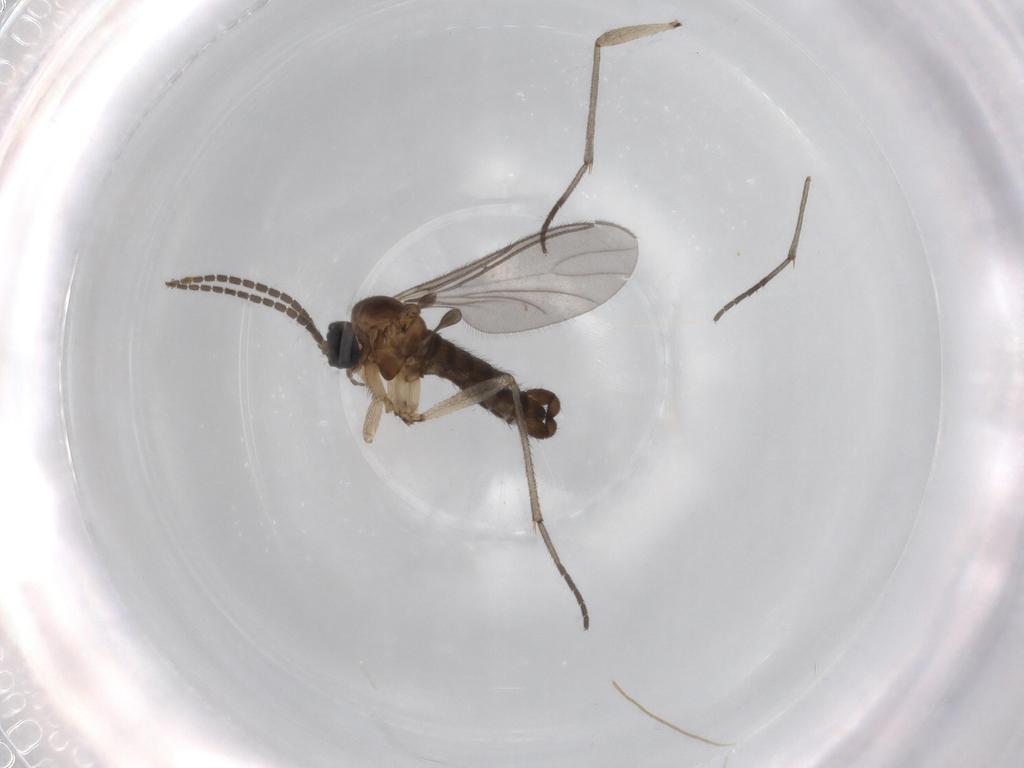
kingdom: Animalia
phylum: Arthropoda
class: Insecta
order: Diptera
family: Sciaridae
